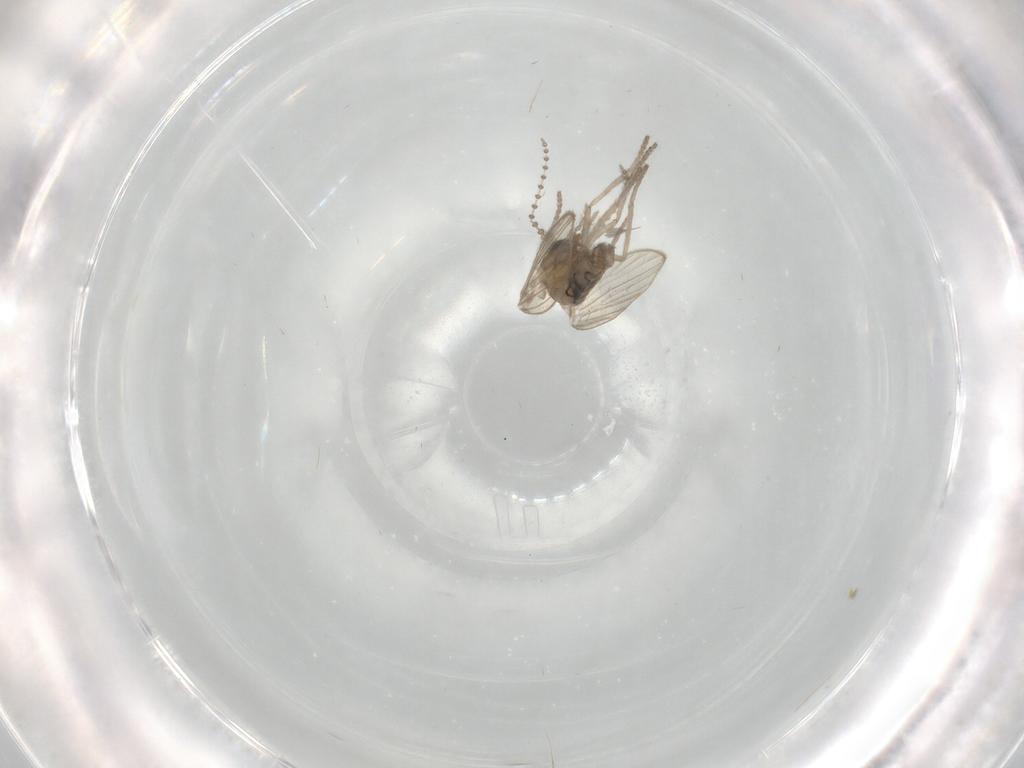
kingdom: Animalia
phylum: Arthropoda
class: Insecta
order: Diptera
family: Psychodidae
